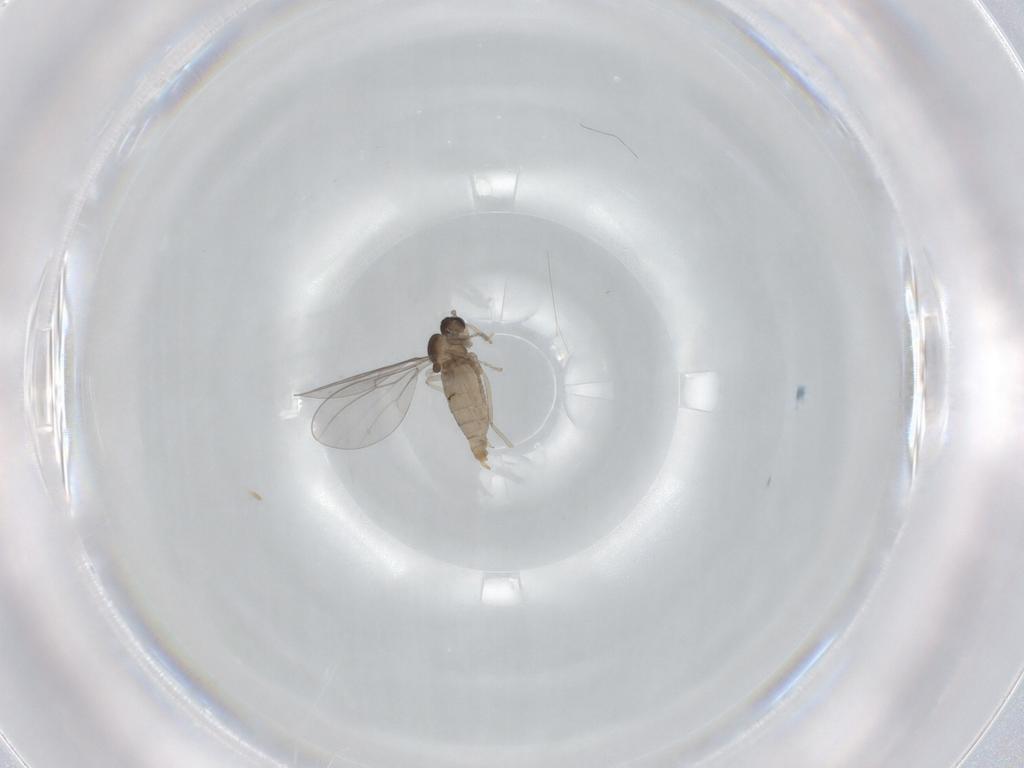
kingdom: Animalia
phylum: Arthropoda
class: Insecta
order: Diptera
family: Cecidomyiidae
